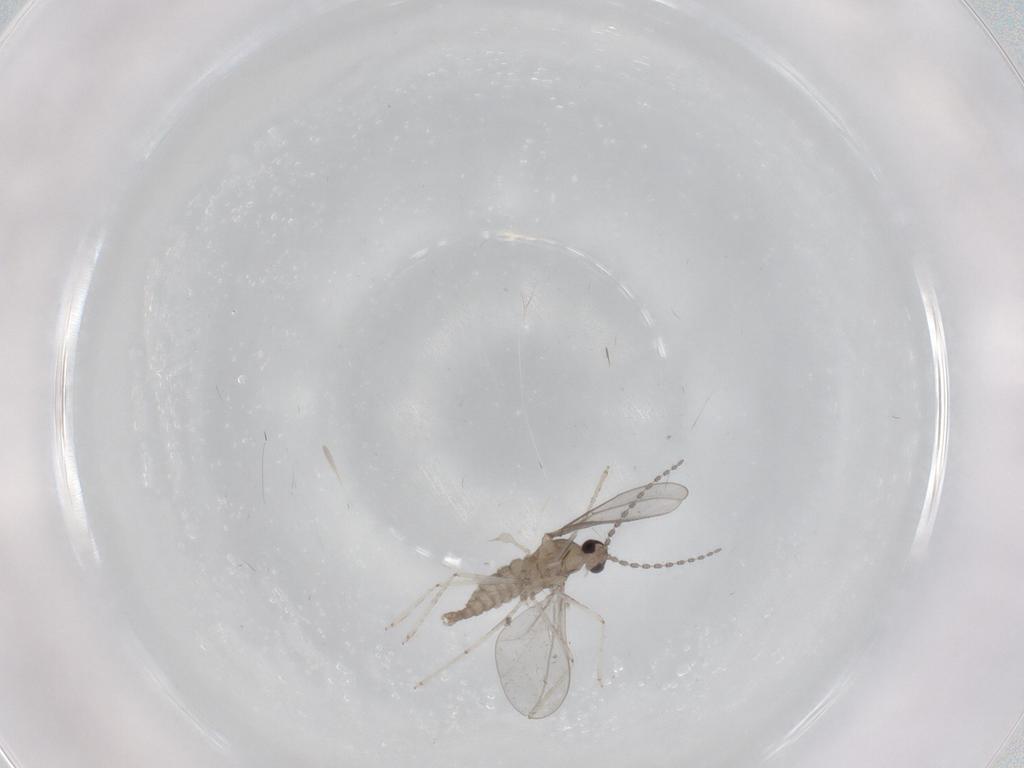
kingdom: Animalia
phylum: Arthropoda
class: Insecta
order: Diptera
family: Cecidomyiidae
